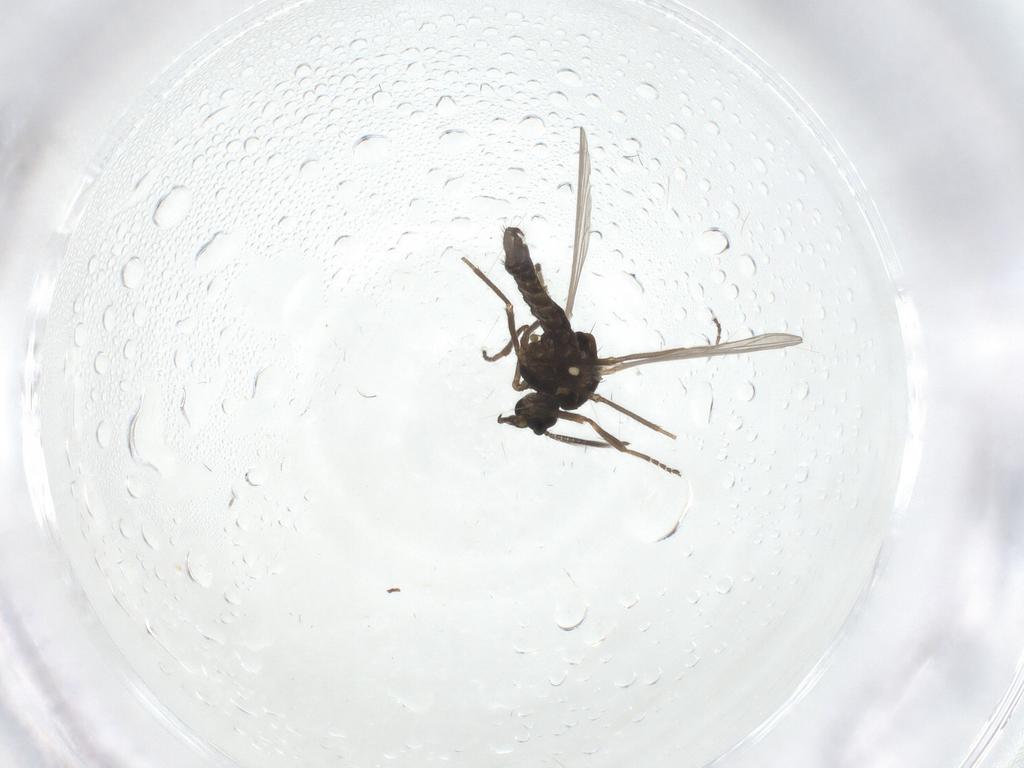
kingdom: Animalia
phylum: Arthropoda
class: Insecta
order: Diptera
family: Ceratopogonidae
